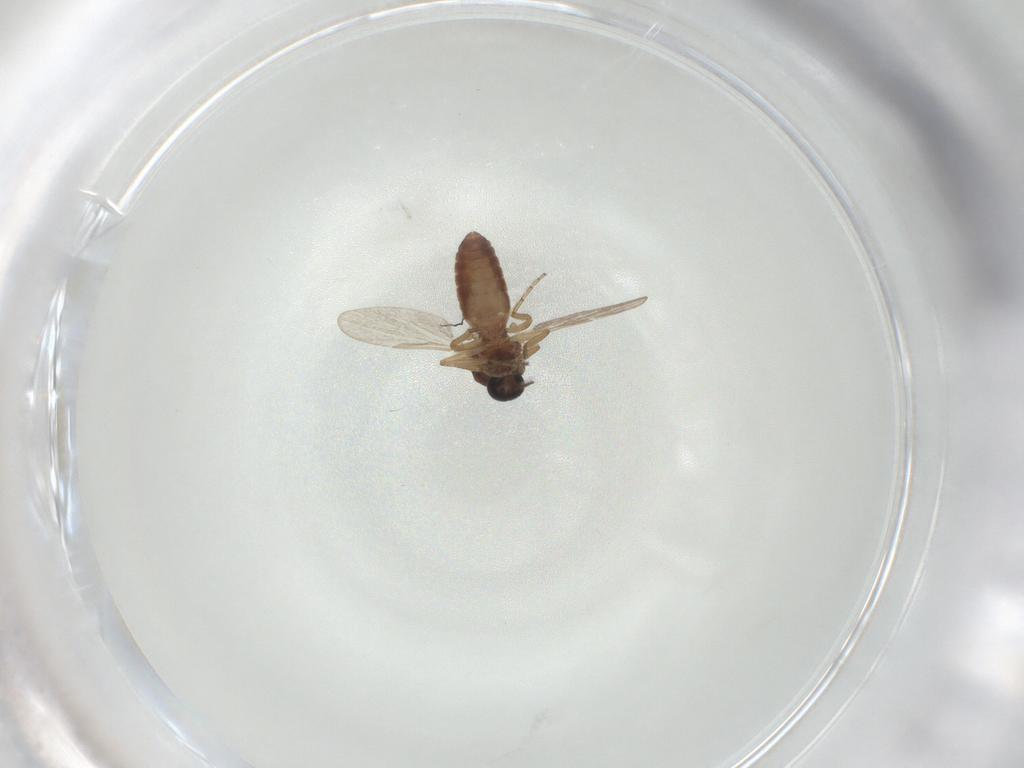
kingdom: Animalia
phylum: Arthropoda
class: Insecta
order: Diptera
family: Ceratopogonidae
